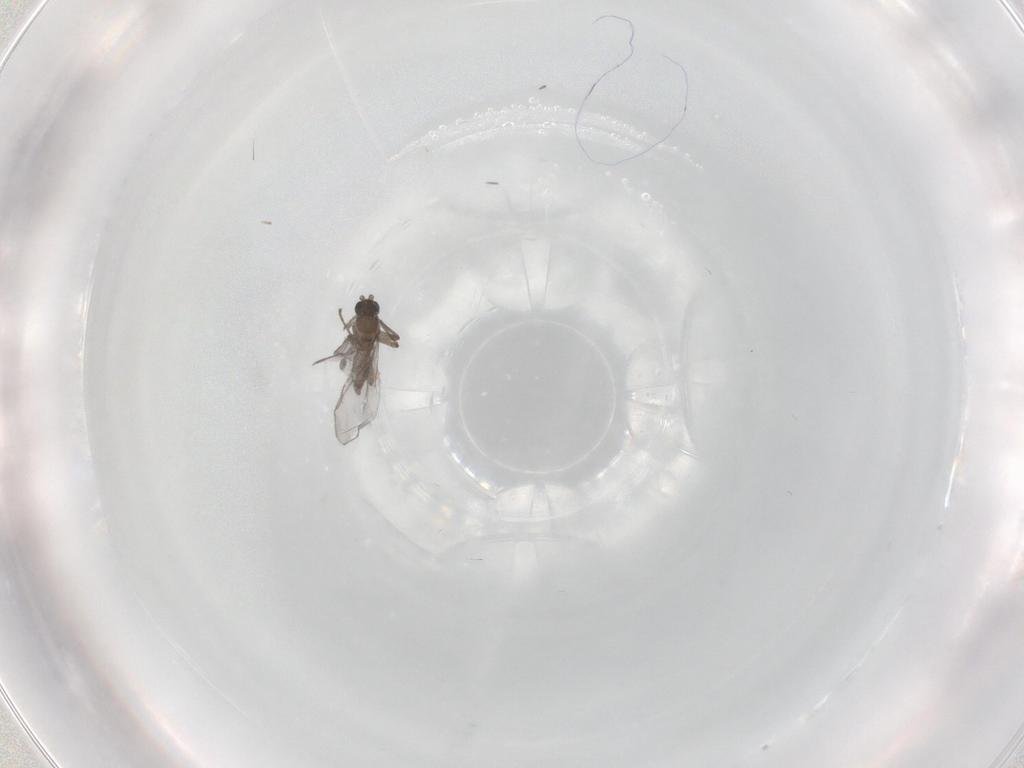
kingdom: Animalia
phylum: Arthropoda
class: Insecta
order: Diptera
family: Sciaridae
